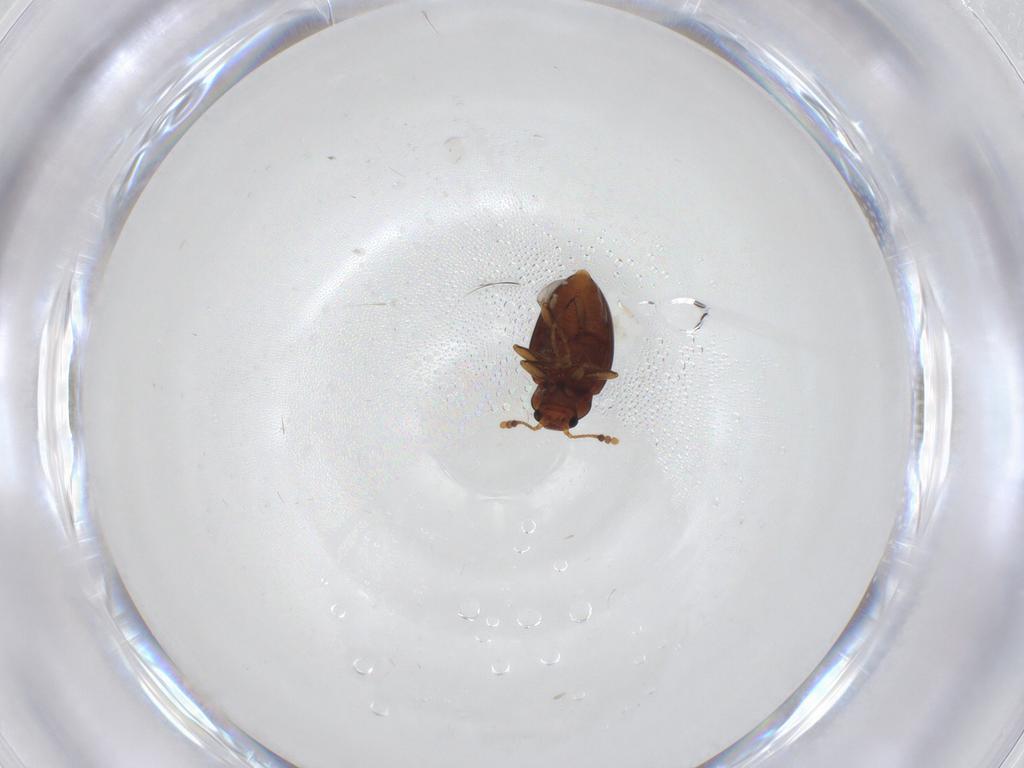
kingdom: Animalia
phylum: Arthropoda
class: Insecta
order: Coleoptera
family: Erotylidae
